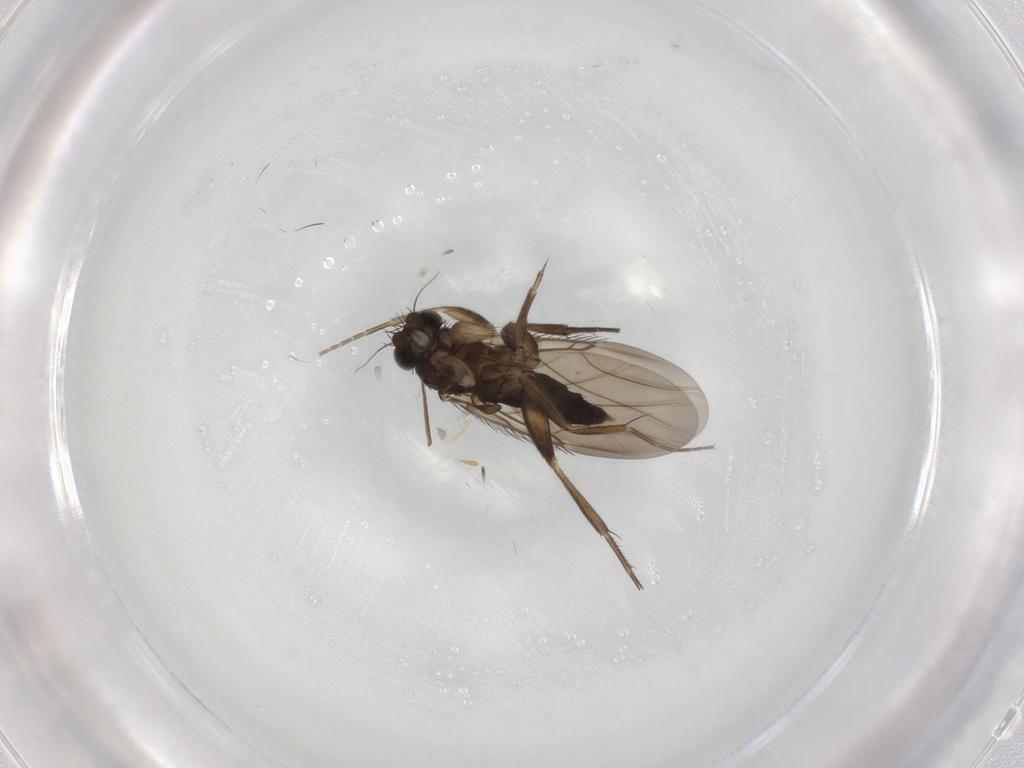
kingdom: Animalia
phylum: Arthropoda
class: Insecta
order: Diptera
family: Phoridae
